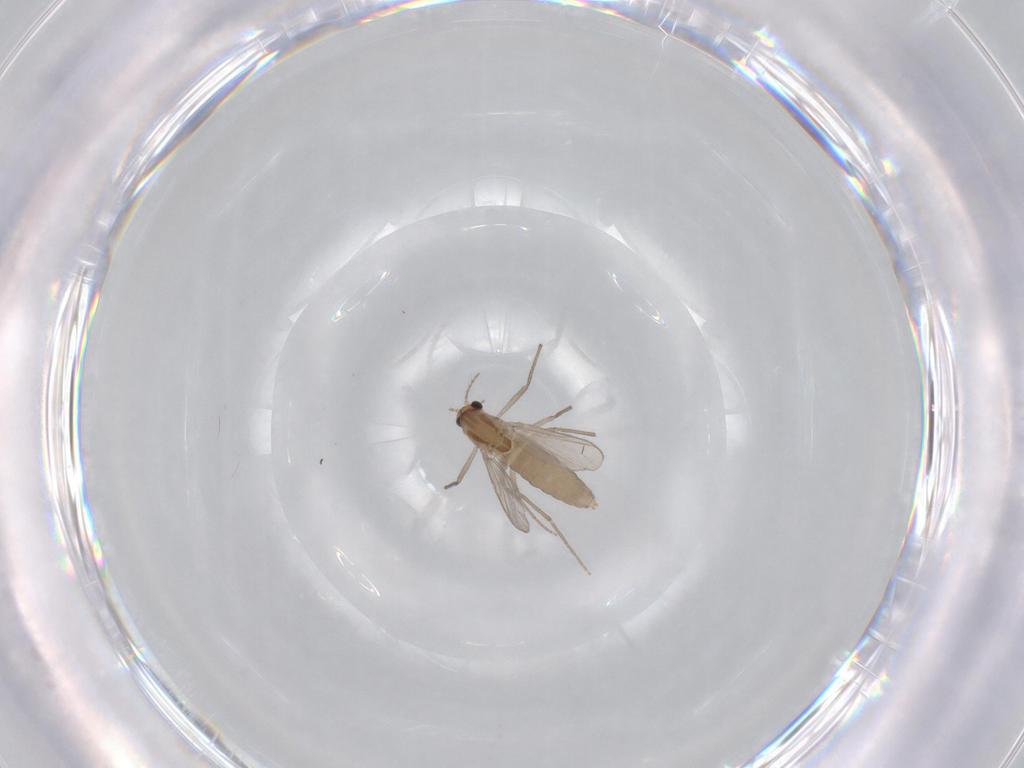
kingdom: Animalia
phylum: Arthropoda
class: Insecta
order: Diptera
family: Chironomidae
